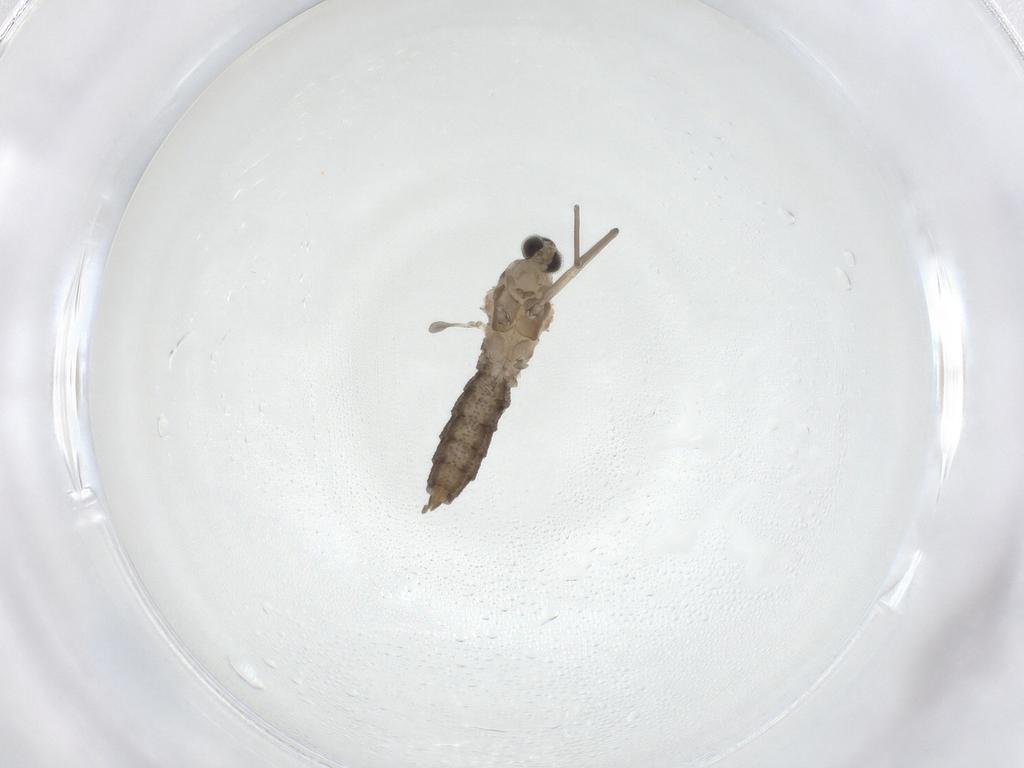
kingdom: Animalia
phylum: Arthropoda
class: Insecta
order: Diptera
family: Cecidomyiidae
